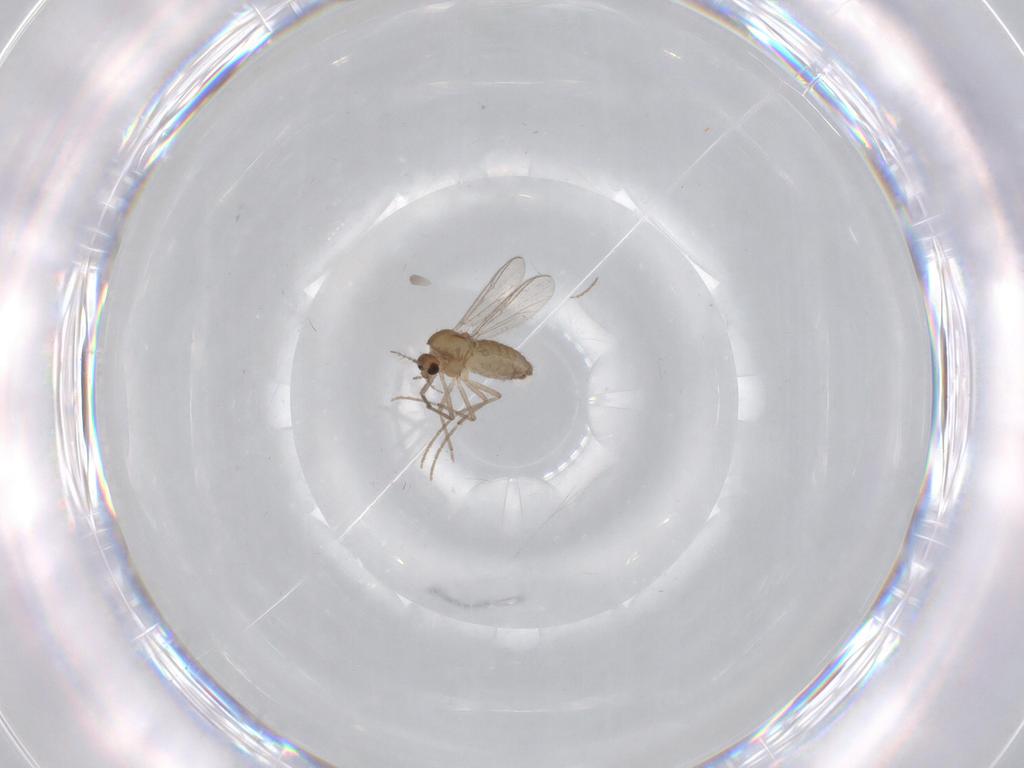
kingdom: Animalia
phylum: Arthropoda
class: Insecta
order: Diptera
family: Chironomidae
